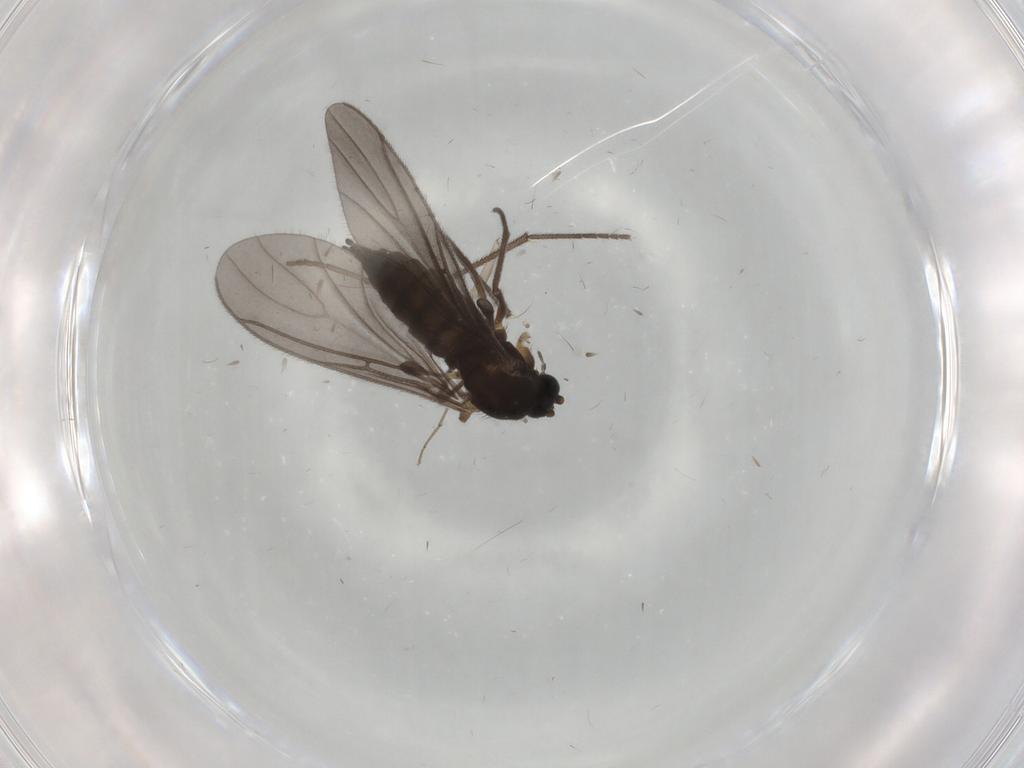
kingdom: Animalia
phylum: Arthropoda
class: Insecta
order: Diptera
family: Sciaridae
